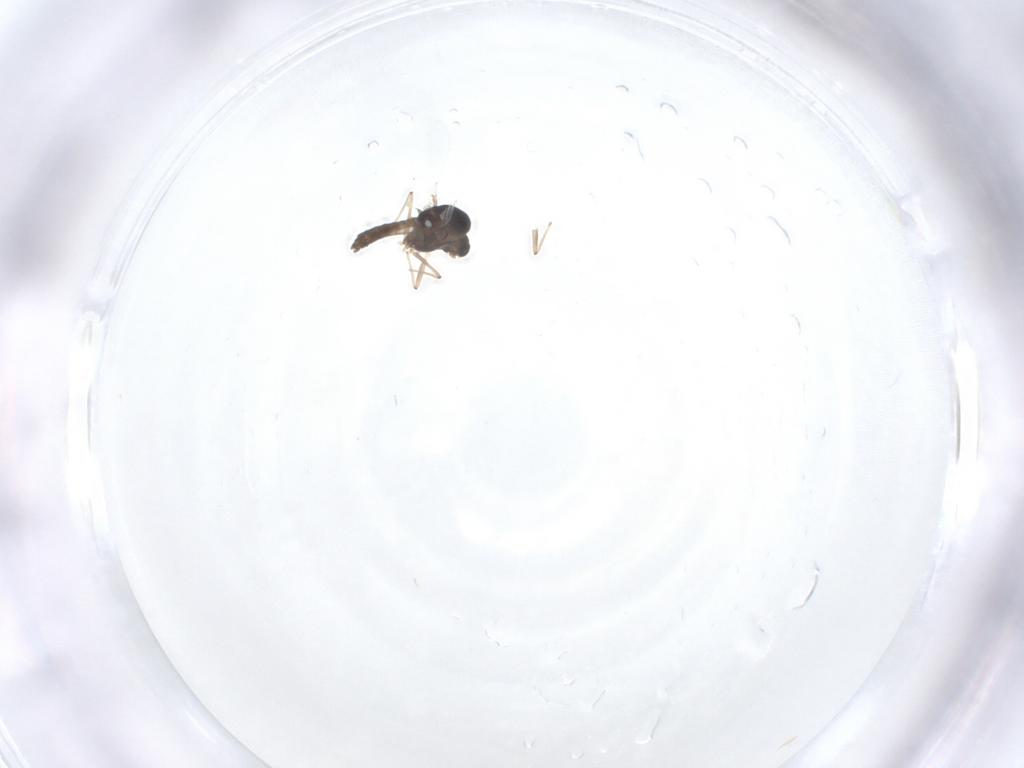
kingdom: Animalia
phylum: Arthropoda
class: Insecta
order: Diptera
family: Chironomidae
